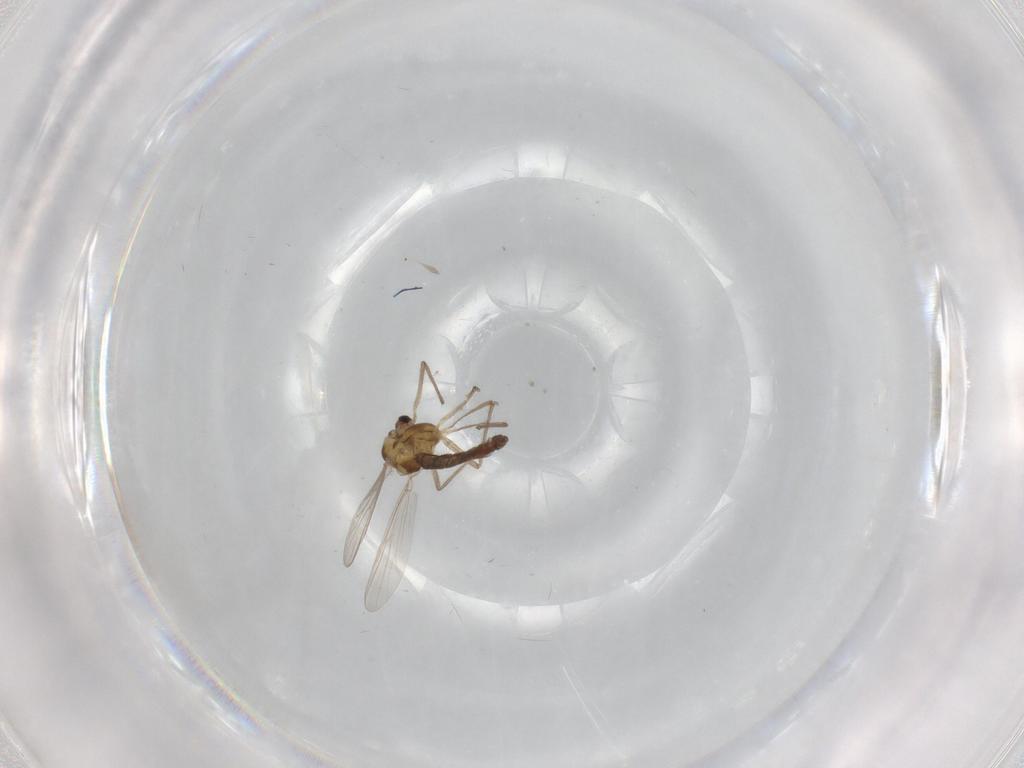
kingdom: Animalia
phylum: Arthropoda
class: Insecta
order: Diptera
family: Chironomidae
